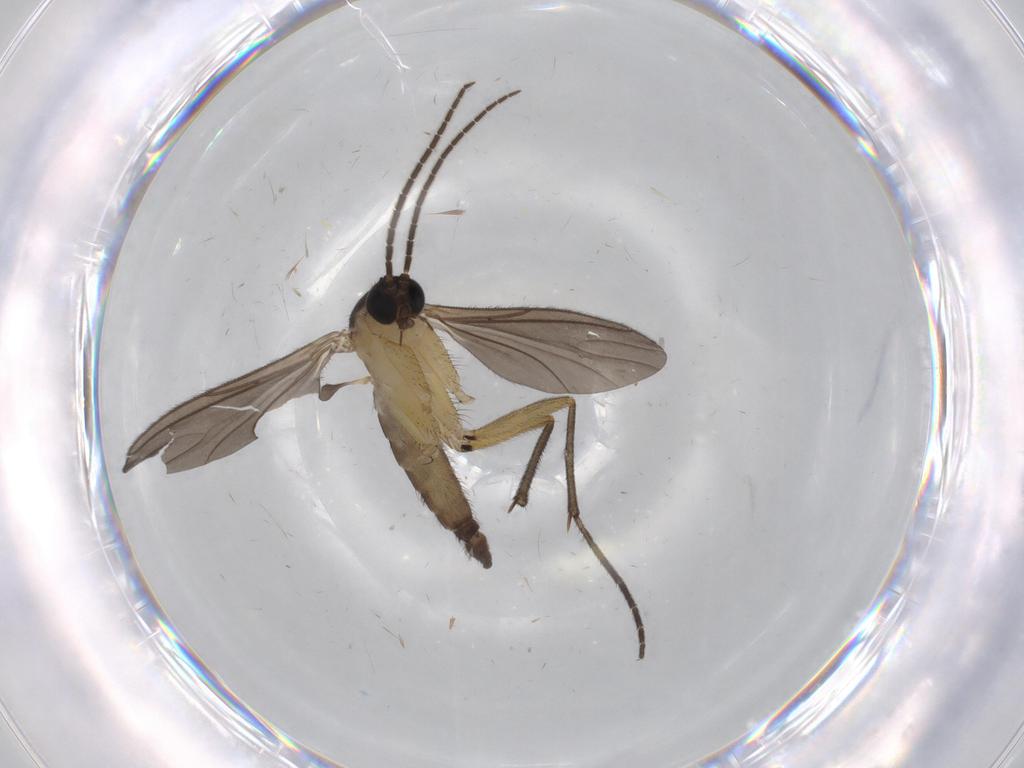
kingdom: Animalia
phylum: Arthropoda
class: Insecta
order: Diptera
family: Sciaridae
